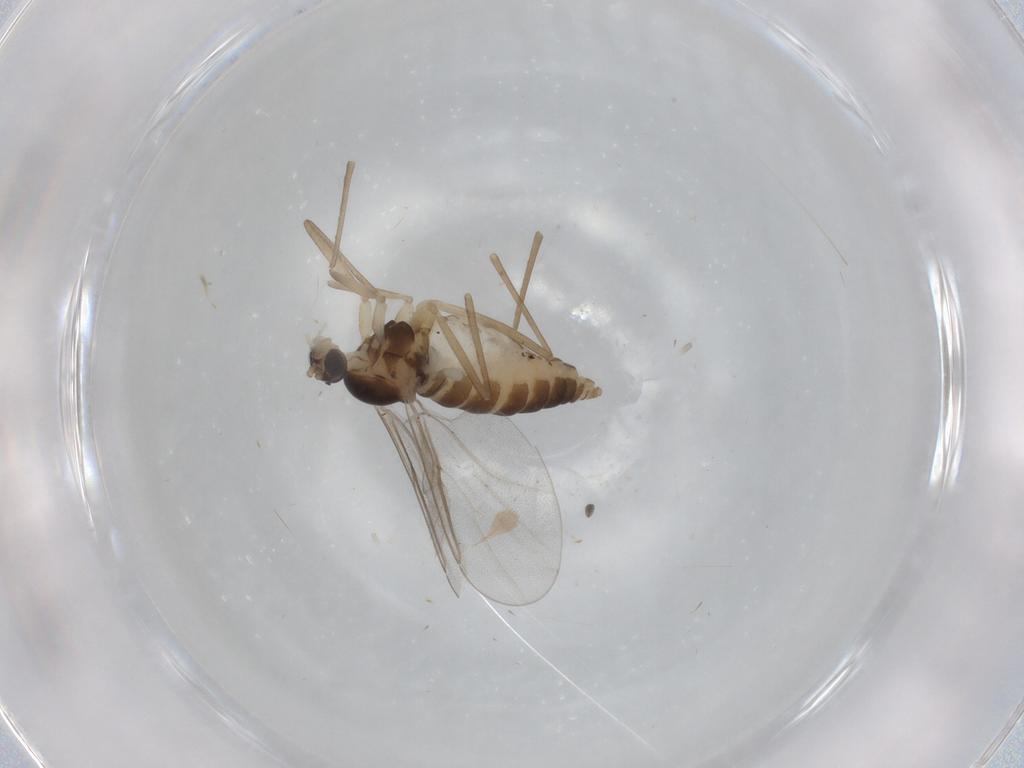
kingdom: Animalia
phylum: Arthropoda
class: Insecta
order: Diptera
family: Cecidomyiidae
